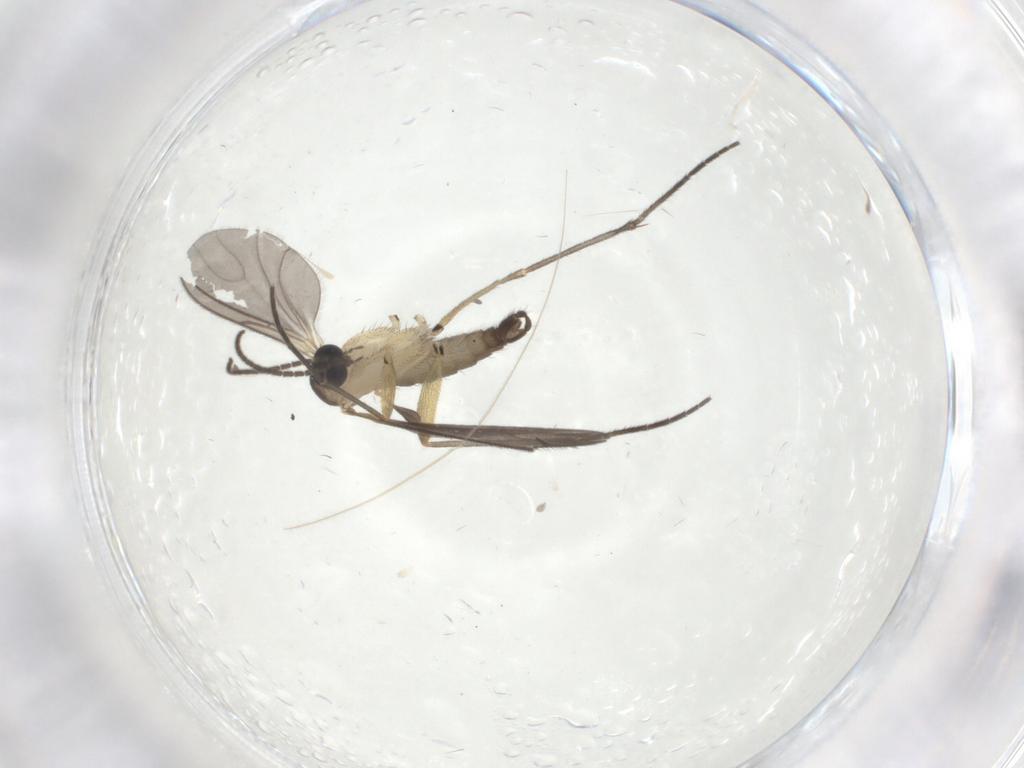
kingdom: Animalia
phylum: Arthropoda
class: Insecta
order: Diptera
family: Sciaridae
